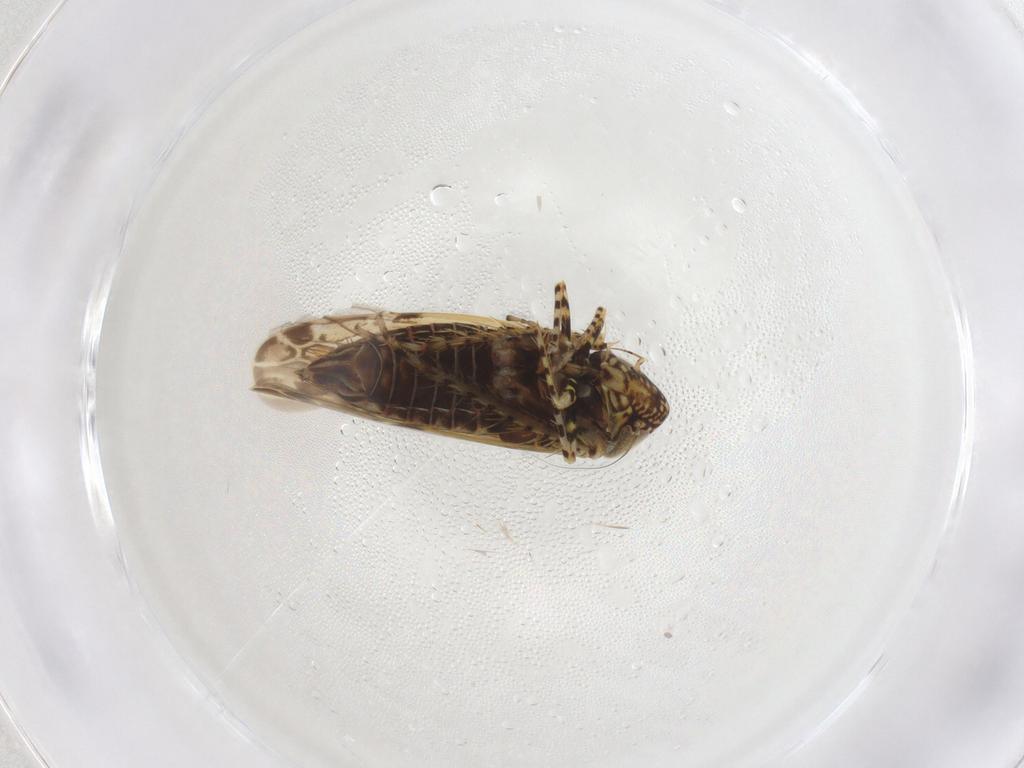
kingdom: Animalia
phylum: Arthropoda
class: Insecta
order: Hemiptera
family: Cicadellidae
